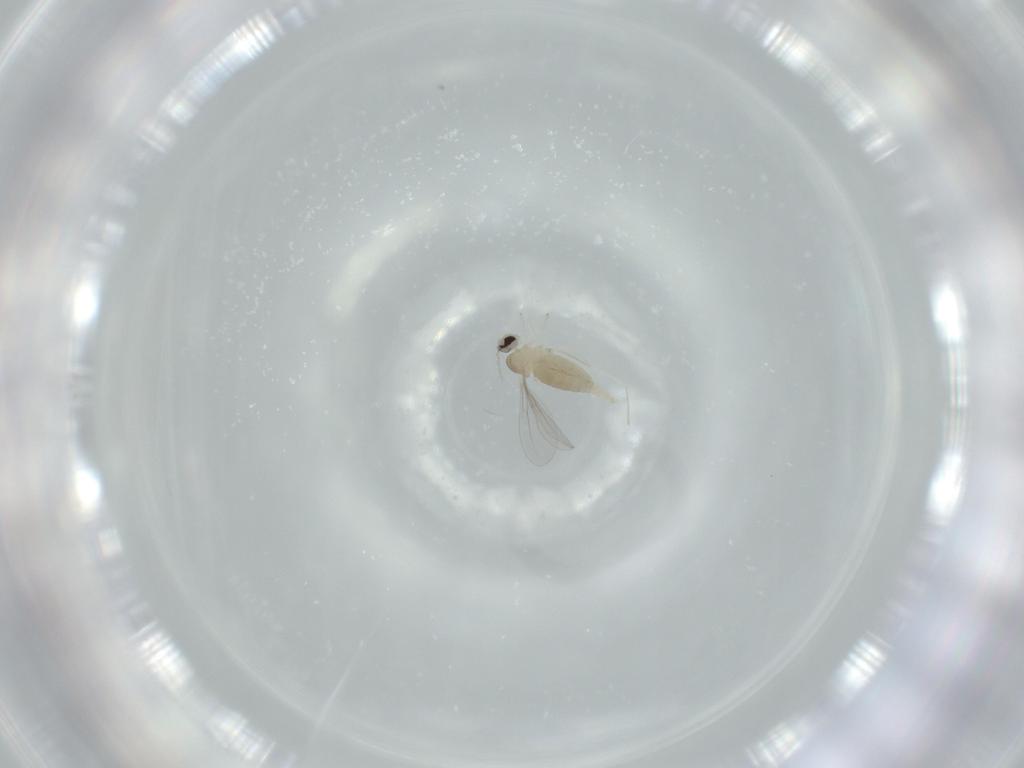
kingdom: Animalia
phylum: Arthropoda
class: Insecta
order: Diptera
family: Cecidomyiidae
